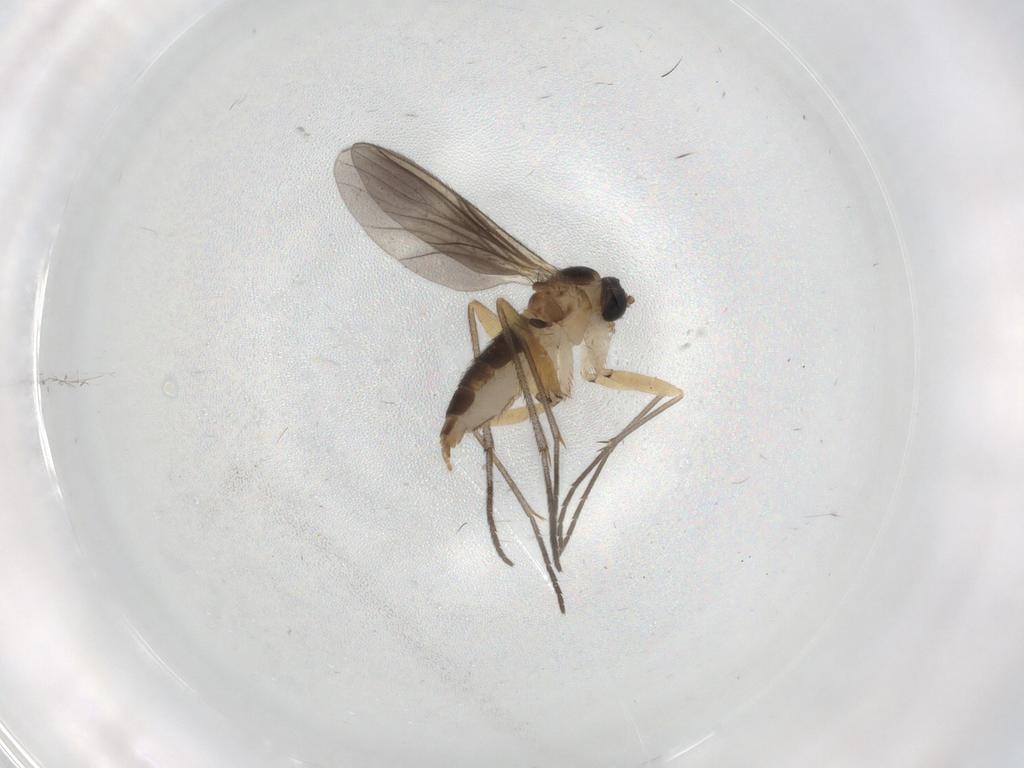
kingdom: Animalia
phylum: Arthropoda
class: Insecta
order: Diptera
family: Sciaridae
